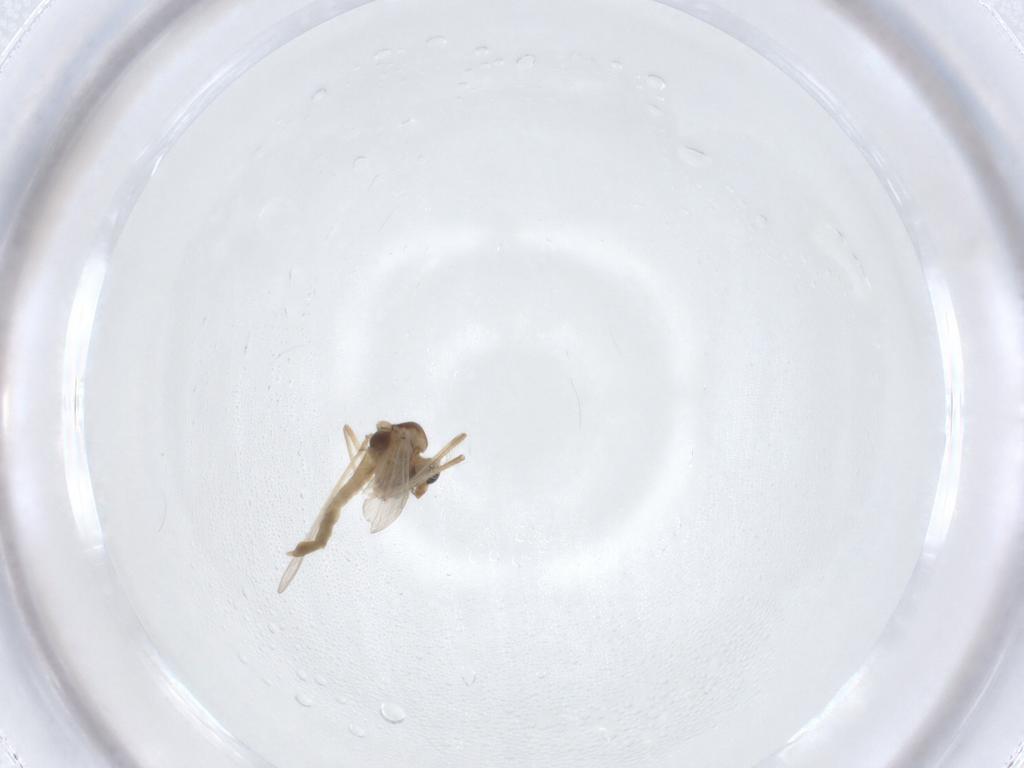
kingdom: Animalia
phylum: Arthropoda
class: Insecta
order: Diptera
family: Chironomidae
